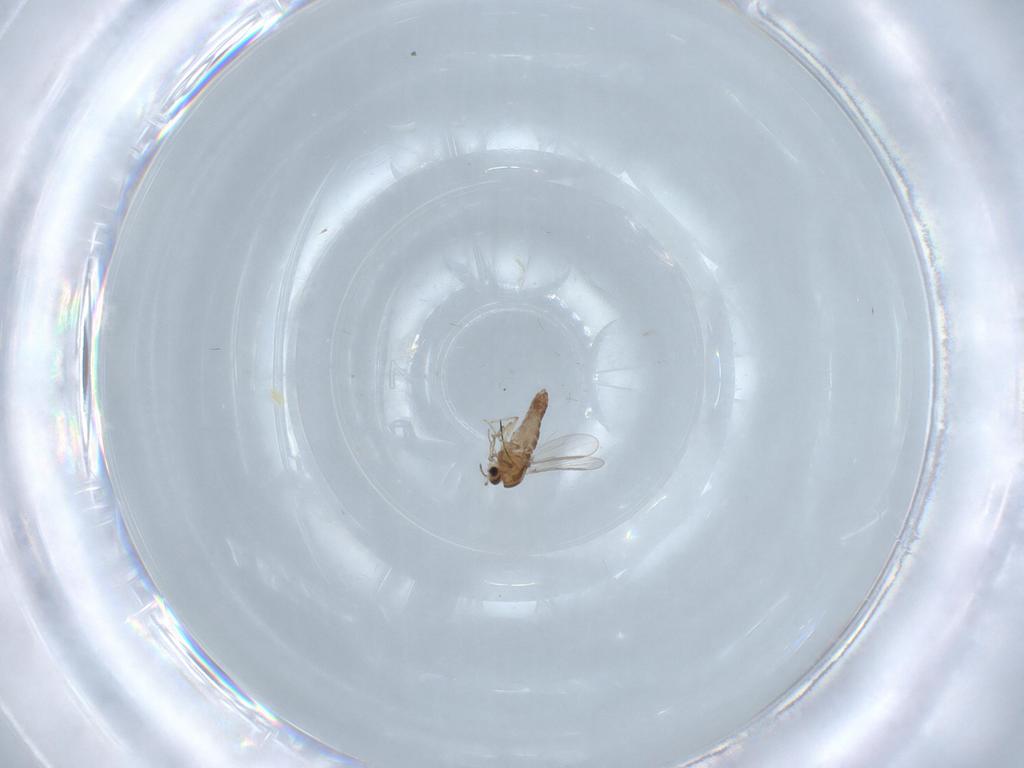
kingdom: Animalia
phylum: Arthropoda
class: Insecta
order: Diptera
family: Chironomidae
